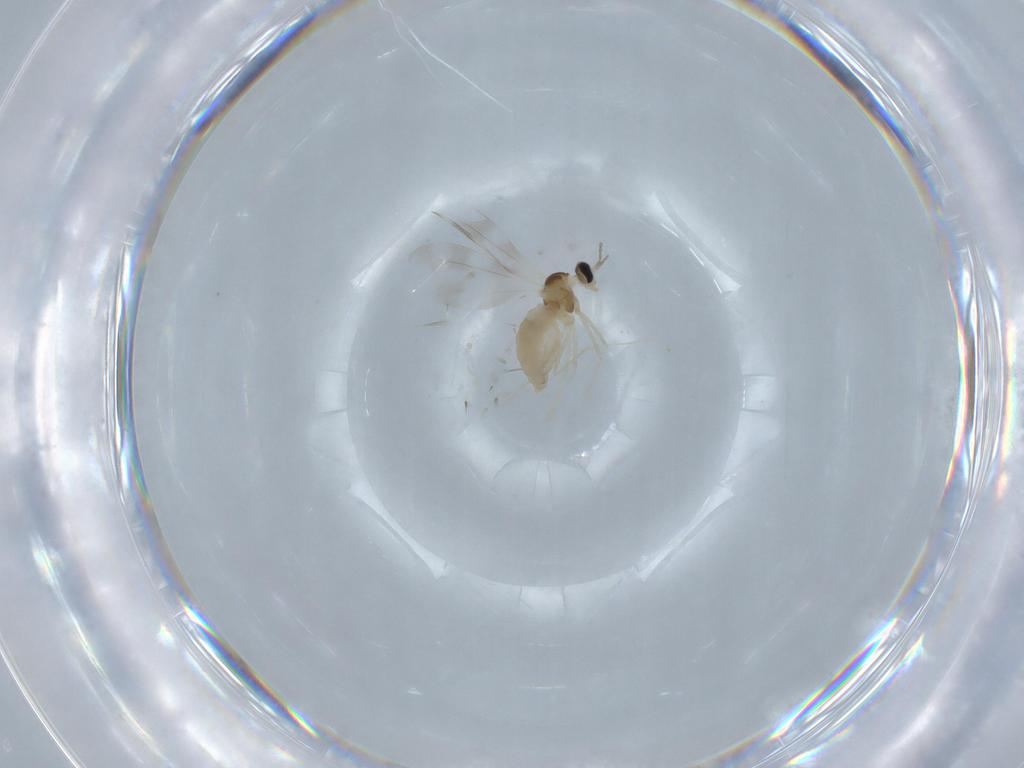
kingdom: Animalia
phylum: Arthropoda
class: Insecta
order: Diptera
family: Cecidomyiidae
